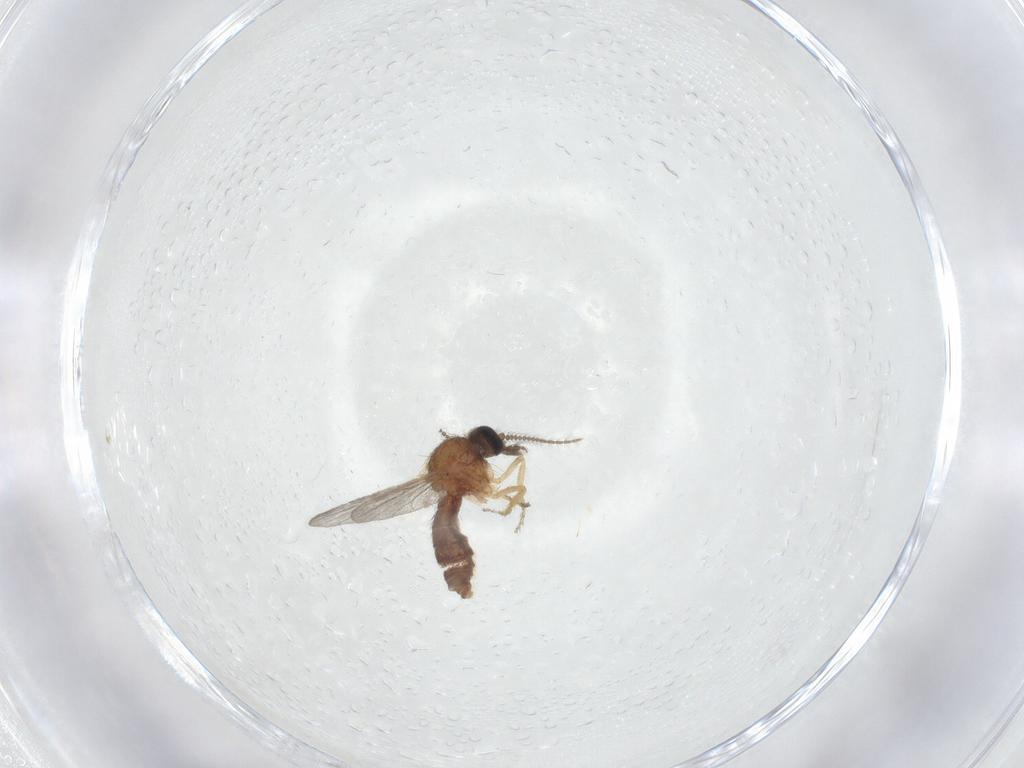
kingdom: Animalia
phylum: Arthropoda
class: Insecta
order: Diptera
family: Ceratopogonidae
